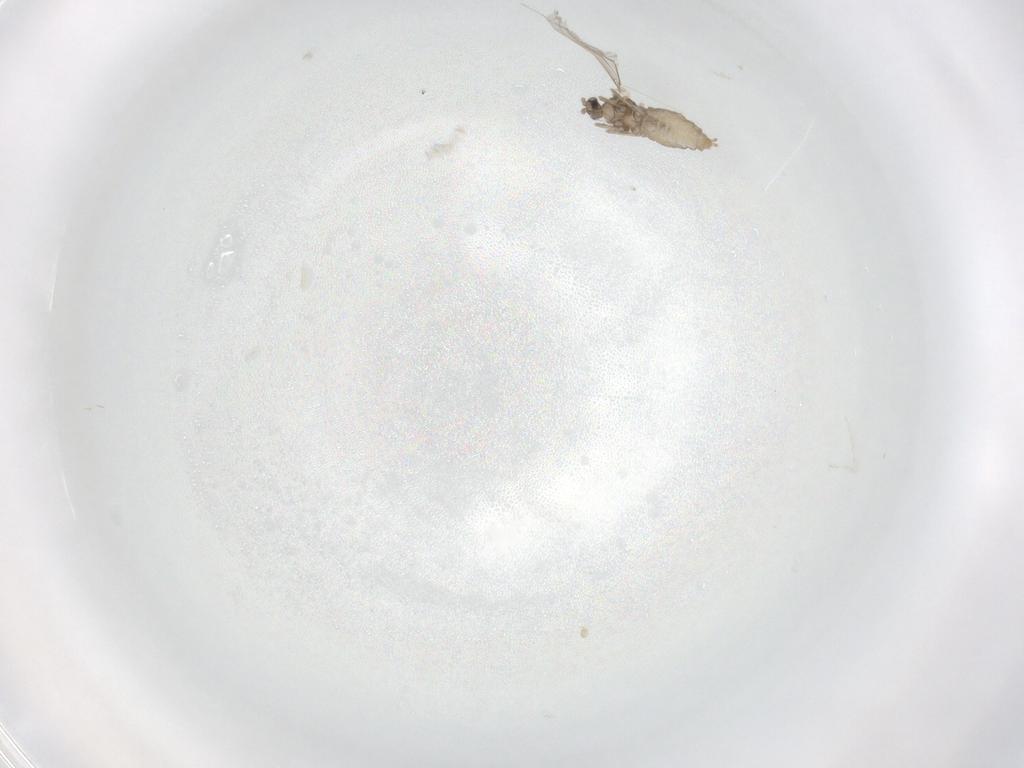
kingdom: Animalia
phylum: Arthropoda
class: Insecta
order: Diptera
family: Cecidomyiidae
